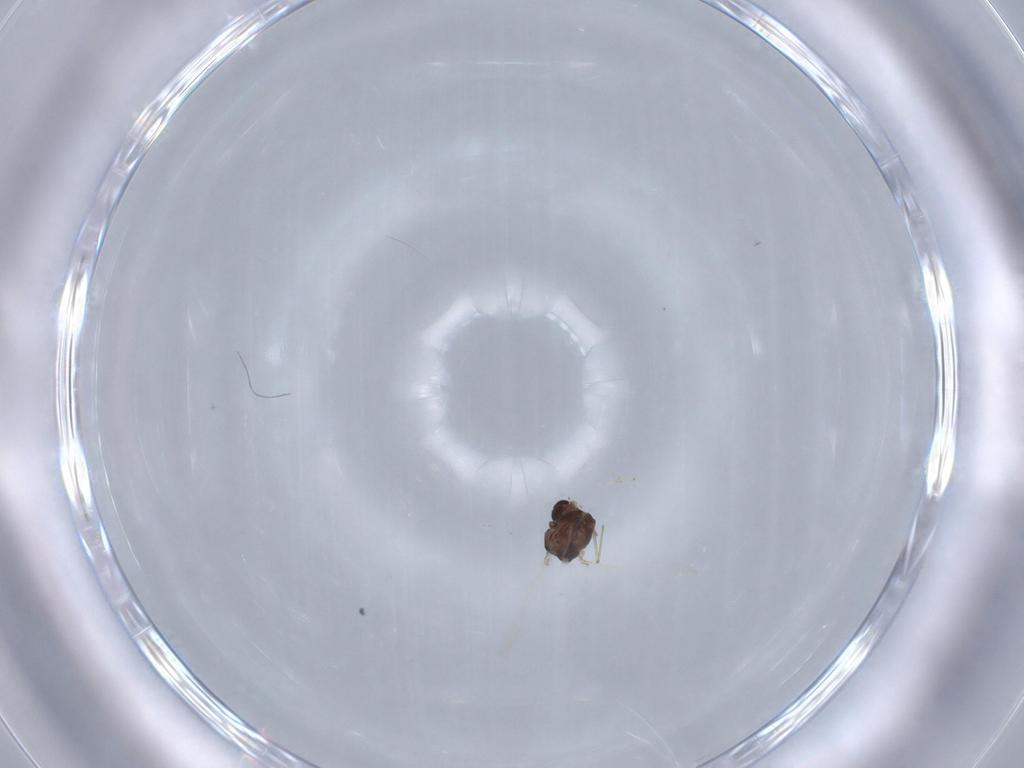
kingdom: Animalia
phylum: Arthropoda
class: Insecta
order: Diptera
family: Chironomidae
